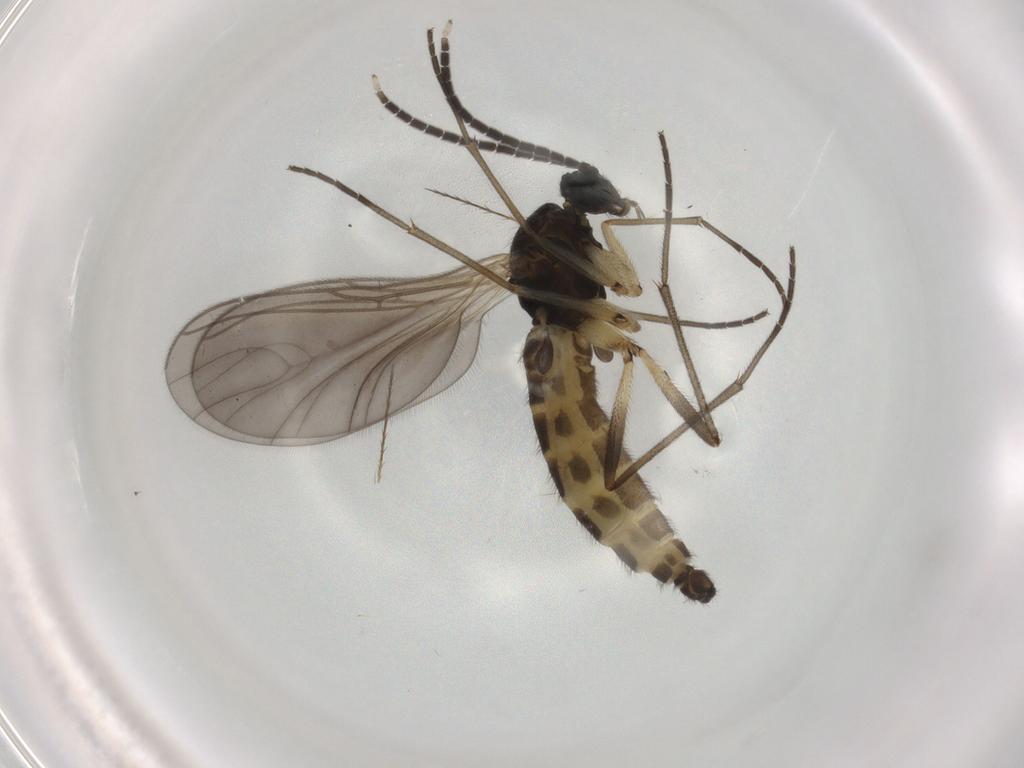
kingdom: Animalia
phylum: Arthropoda
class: Insecta
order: Diptera
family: Sciaridae
